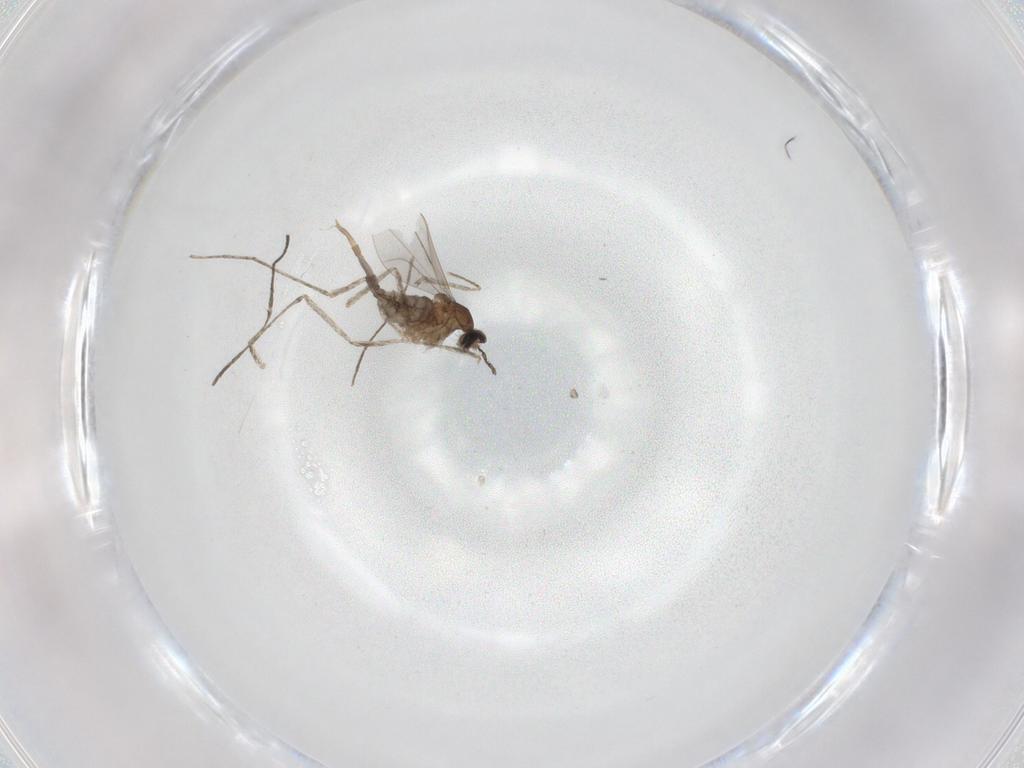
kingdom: Animalia
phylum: Arthropoda
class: Insecta
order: Diptera
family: Cecidomyiidae
